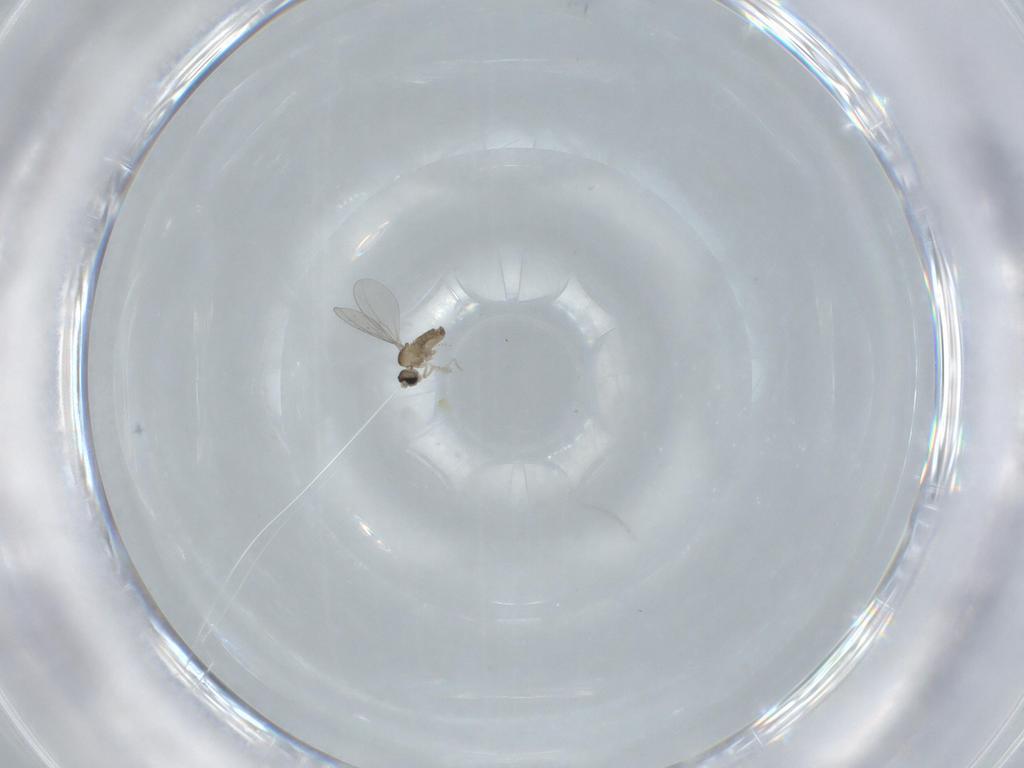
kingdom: Animalia
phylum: Arthropoda
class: Insecta
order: Diptera
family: Cecidomyiidae
